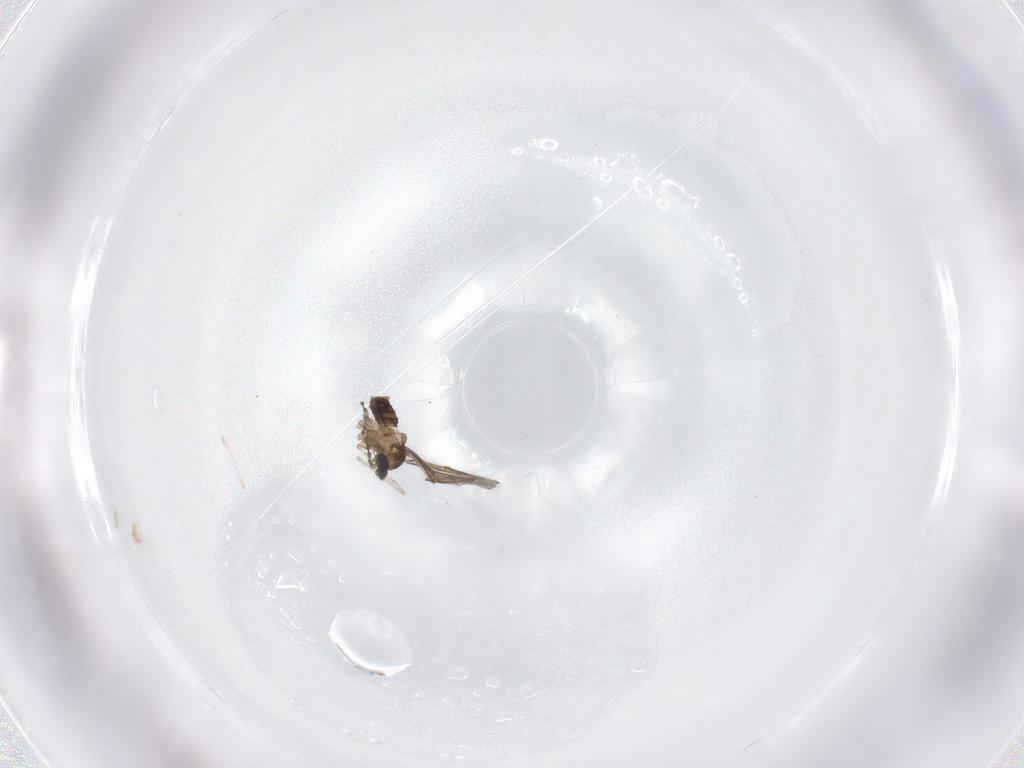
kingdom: Animalia
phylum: Arthropoda
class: Insecta
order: Diptera
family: Cecidomyiidae
